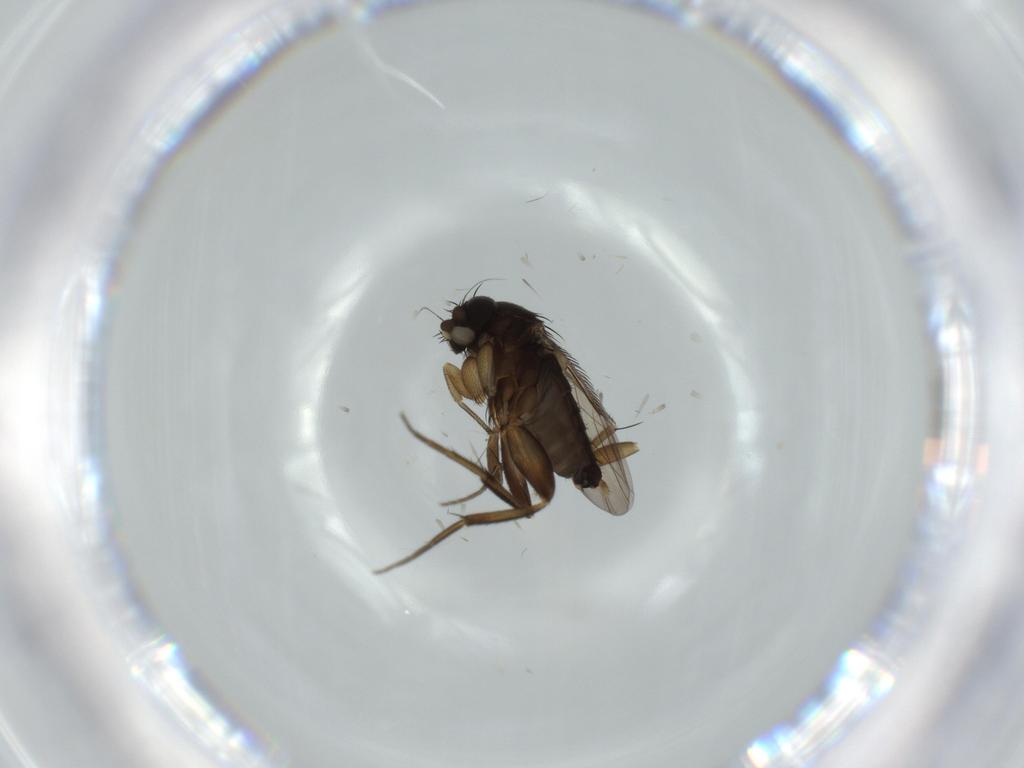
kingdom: Animalia
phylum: Arthropoda
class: Insecta
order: Diptera
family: Phoridae
